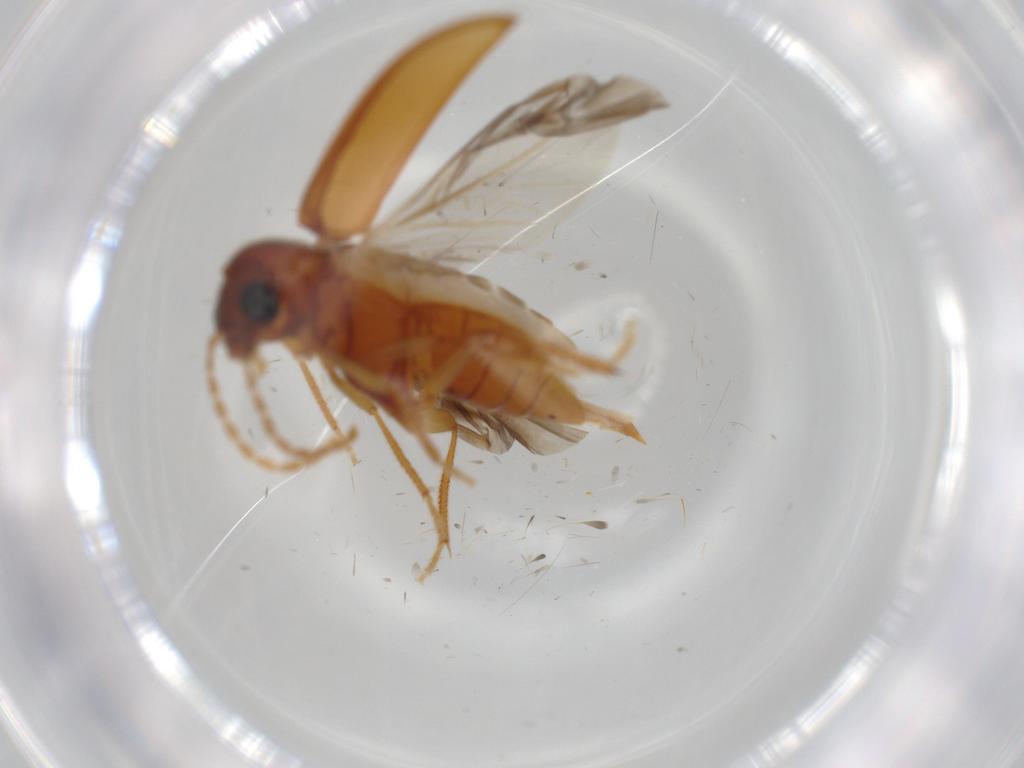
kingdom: Animalia
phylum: Arthropoda
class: Insecta
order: Coleoptera
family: Ptilodactylidae
